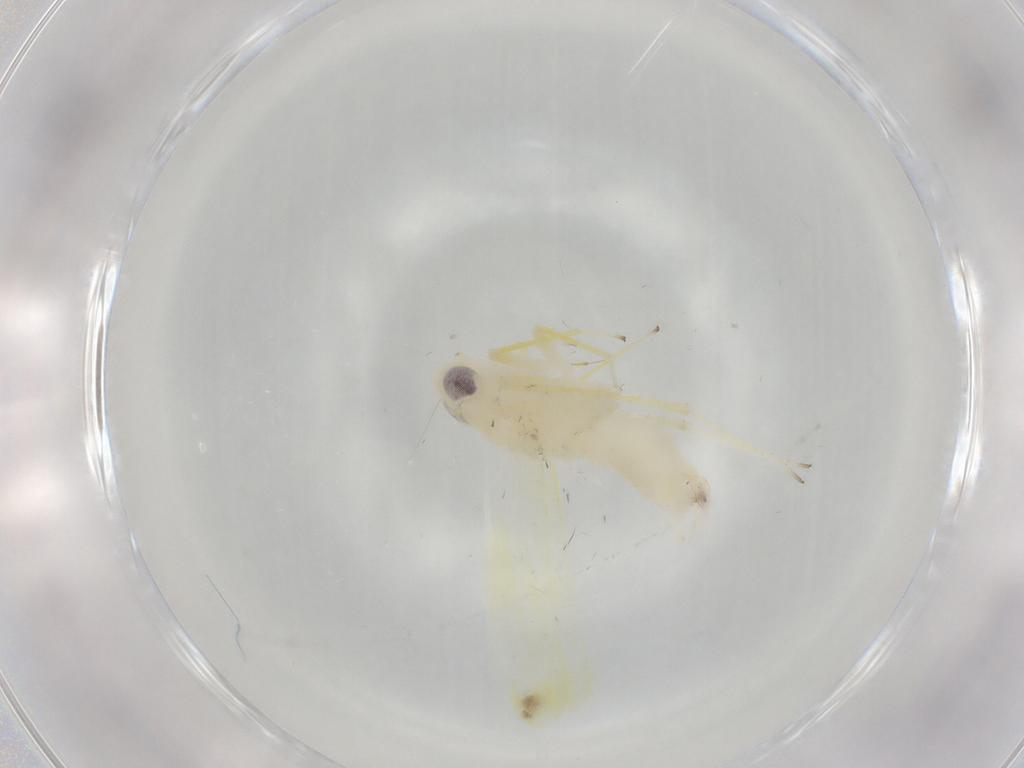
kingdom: Animalia
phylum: Arthropoda
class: Insecta
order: Hemiptera
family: Cicadellidae
